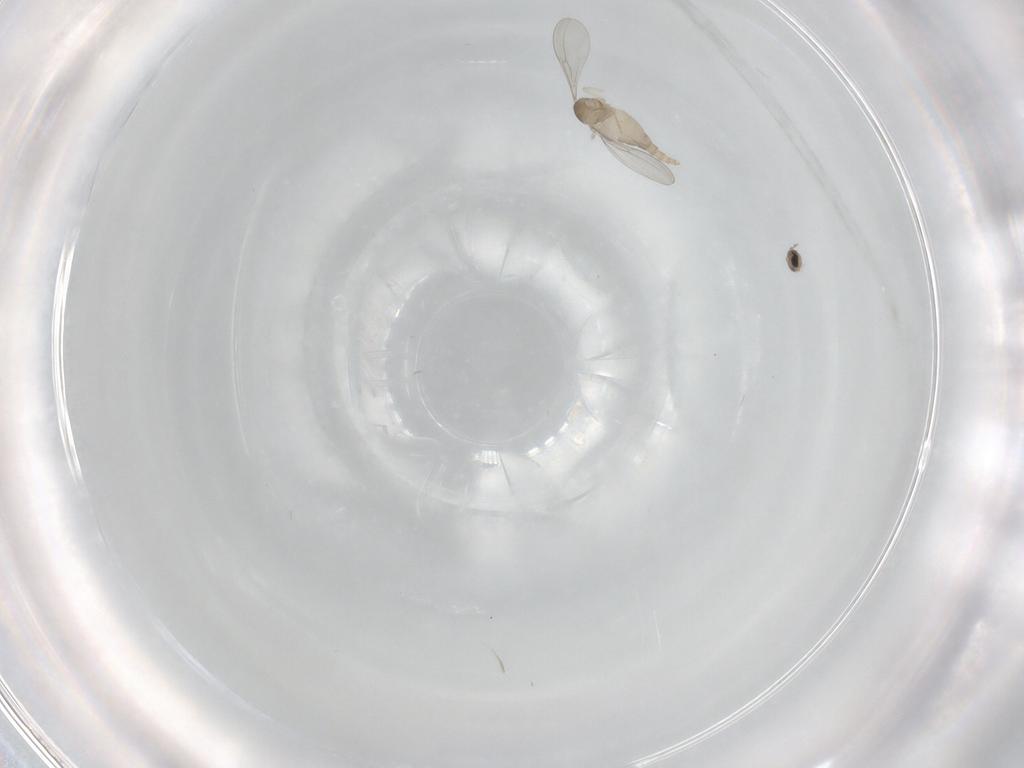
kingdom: Animalia
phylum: Arthropoda
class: Insecta
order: Diptera
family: Cecidomyiidae
